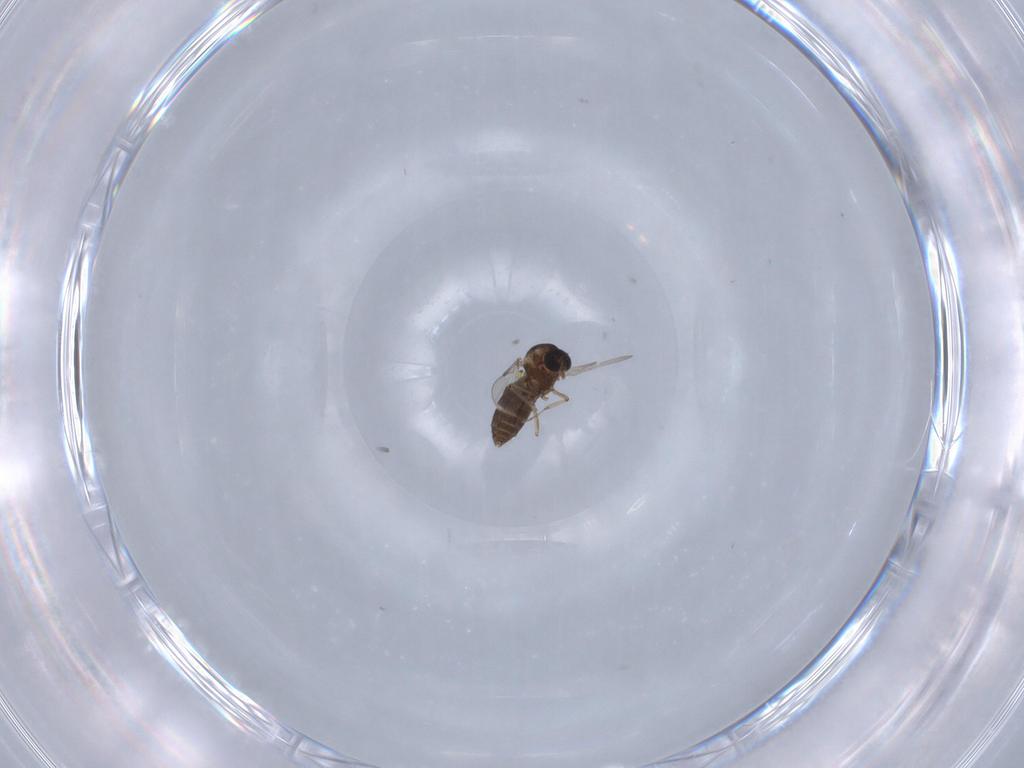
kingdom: Animalia
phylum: Arthropoda
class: Insecta
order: Diptera
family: Ceratopogonidae
